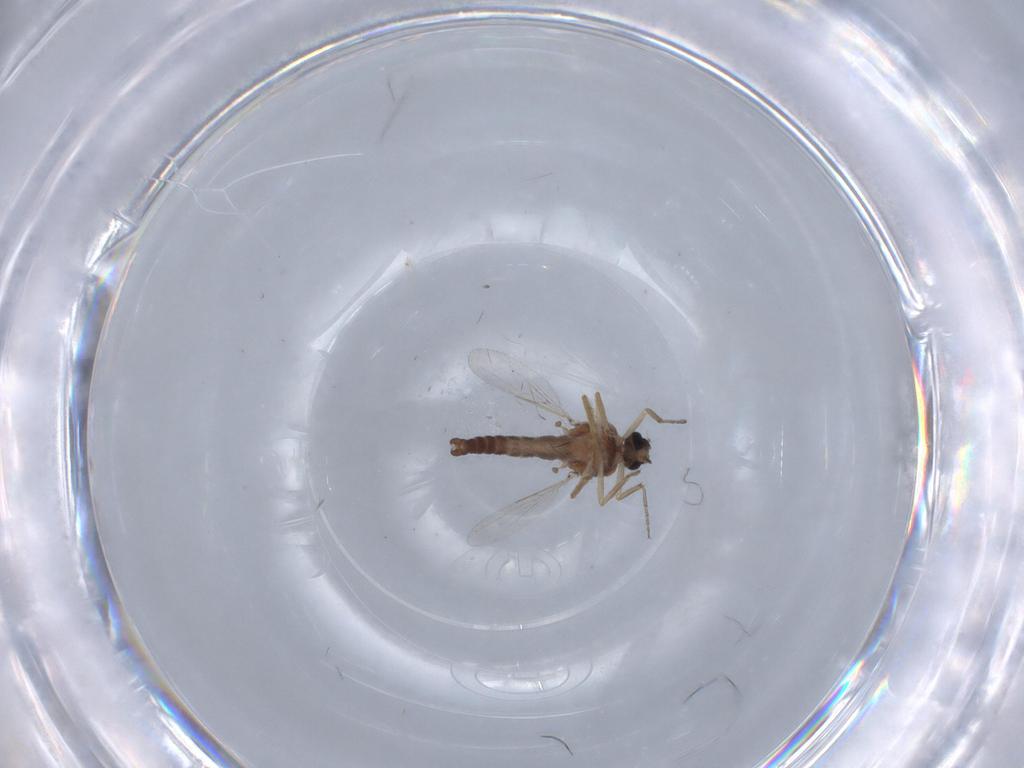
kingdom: Animalia
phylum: Arthropoda
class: Insecta
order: Diptera
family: Ceratopogonidae
